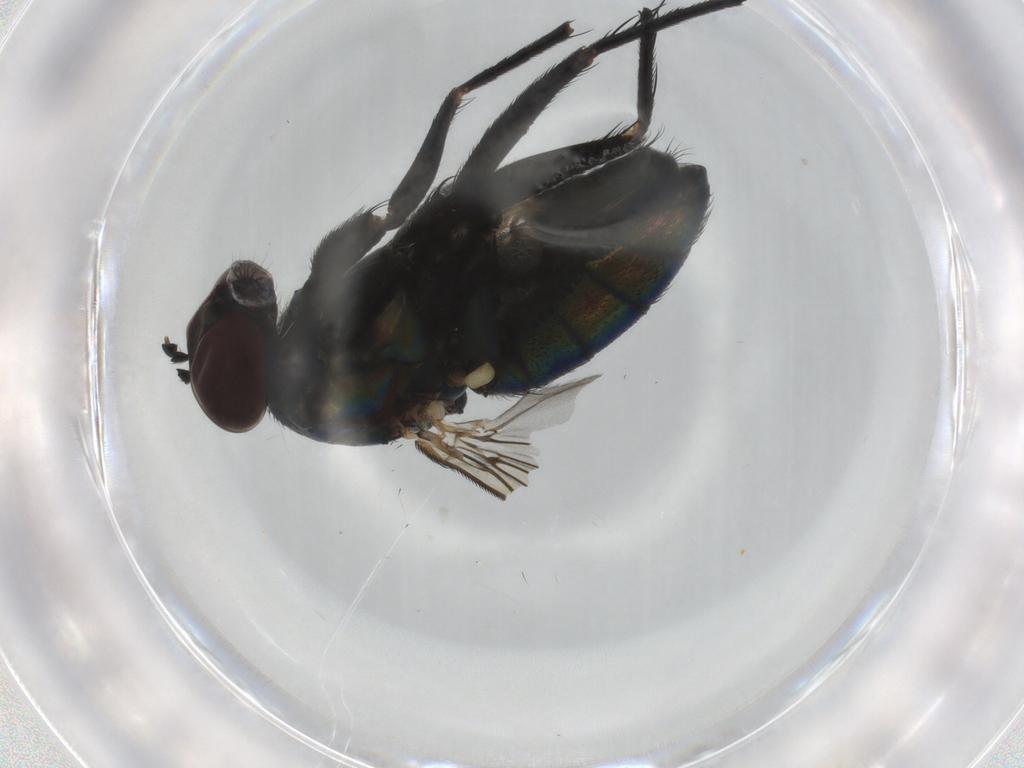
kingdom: Animalia
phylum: Arthropoda
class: Insecta
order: Diptera
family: Dolichopodidae
